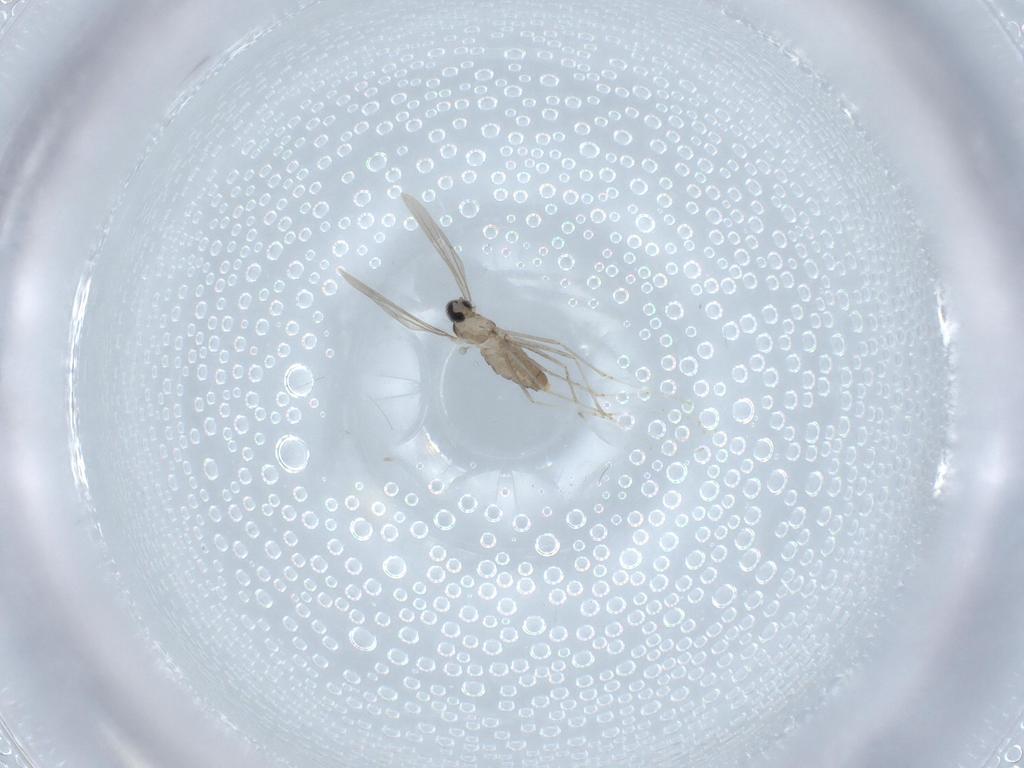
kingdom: Animalia
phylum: Arthropoda
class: Insecta
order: Diptera
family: Cecidomyiidae
